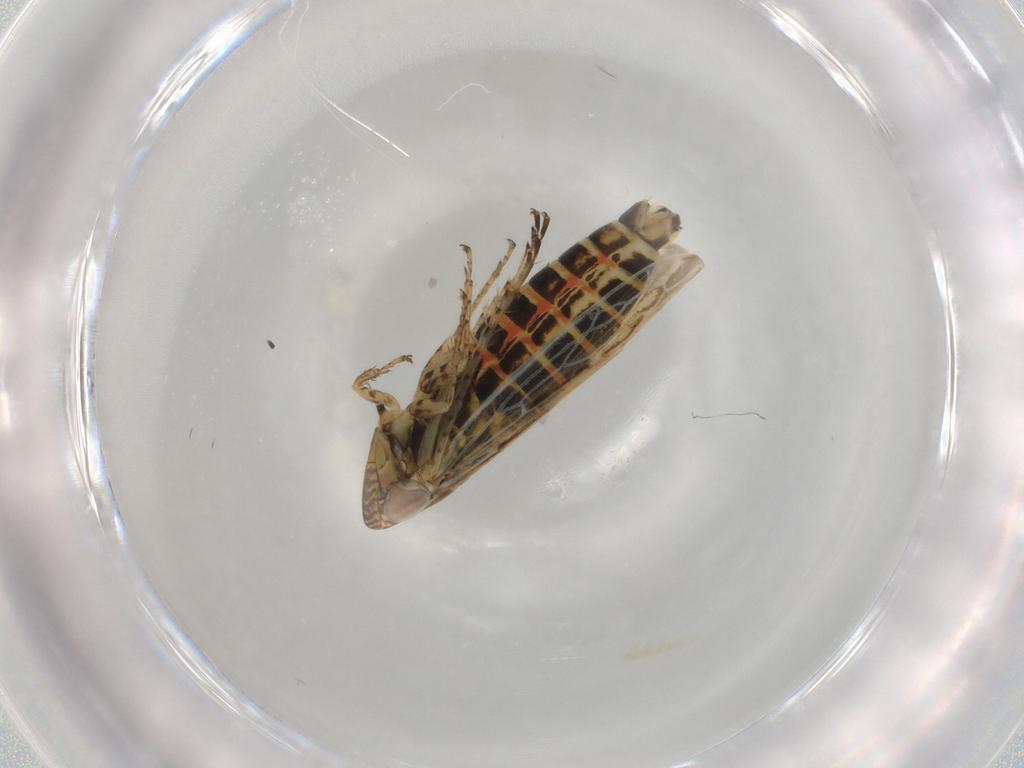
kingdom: Animalia
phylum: Arthropoda
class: Insecta
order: Hemiptera
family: Cicadellidae
